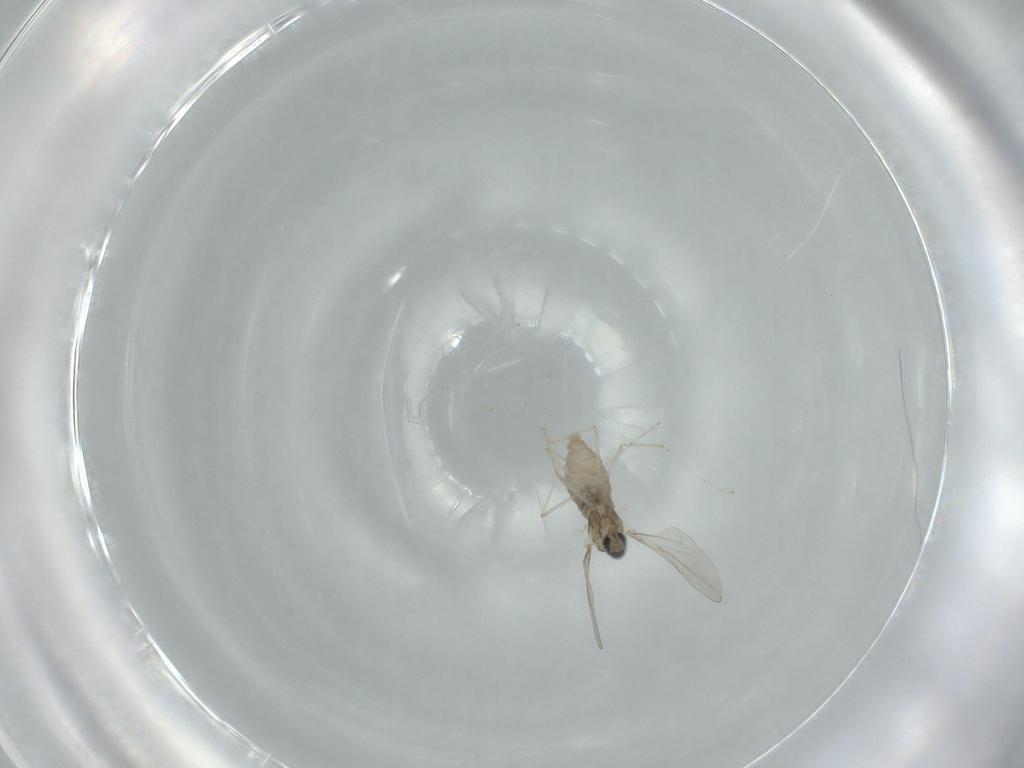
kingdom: Animalia
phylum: Arthropoda
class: Insecta
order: Diptera
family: Cecidomyiidae
